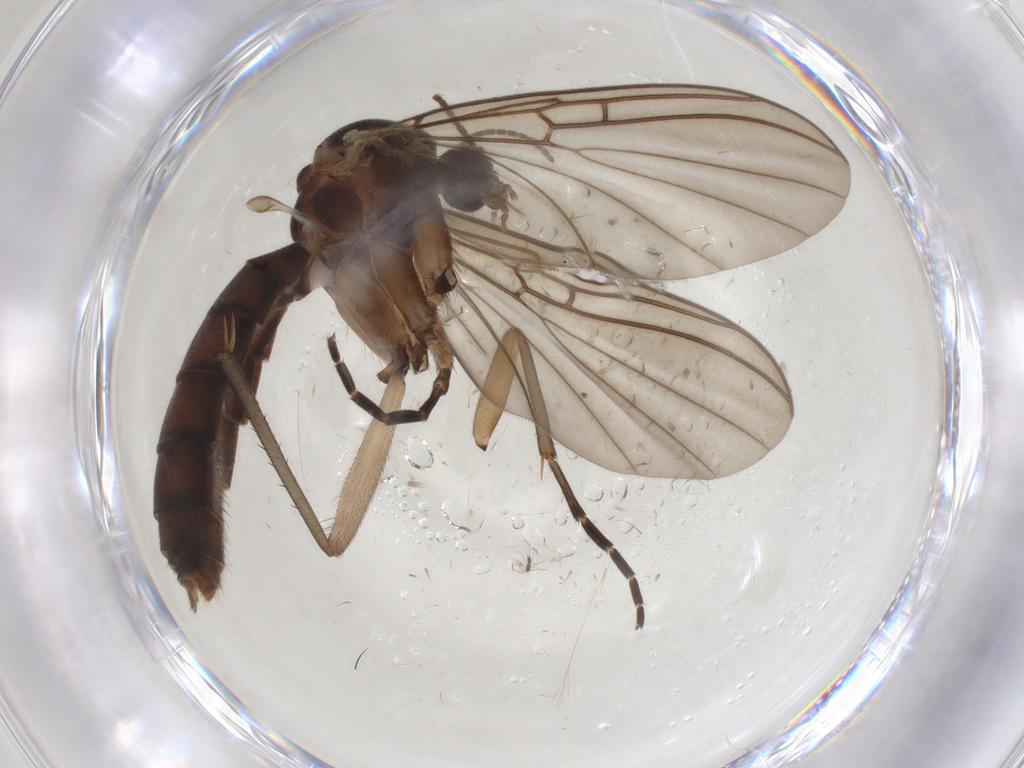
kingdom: Animalia
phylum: Arthropoda
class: Insecta
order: Diptera
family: Mycetophilidae
